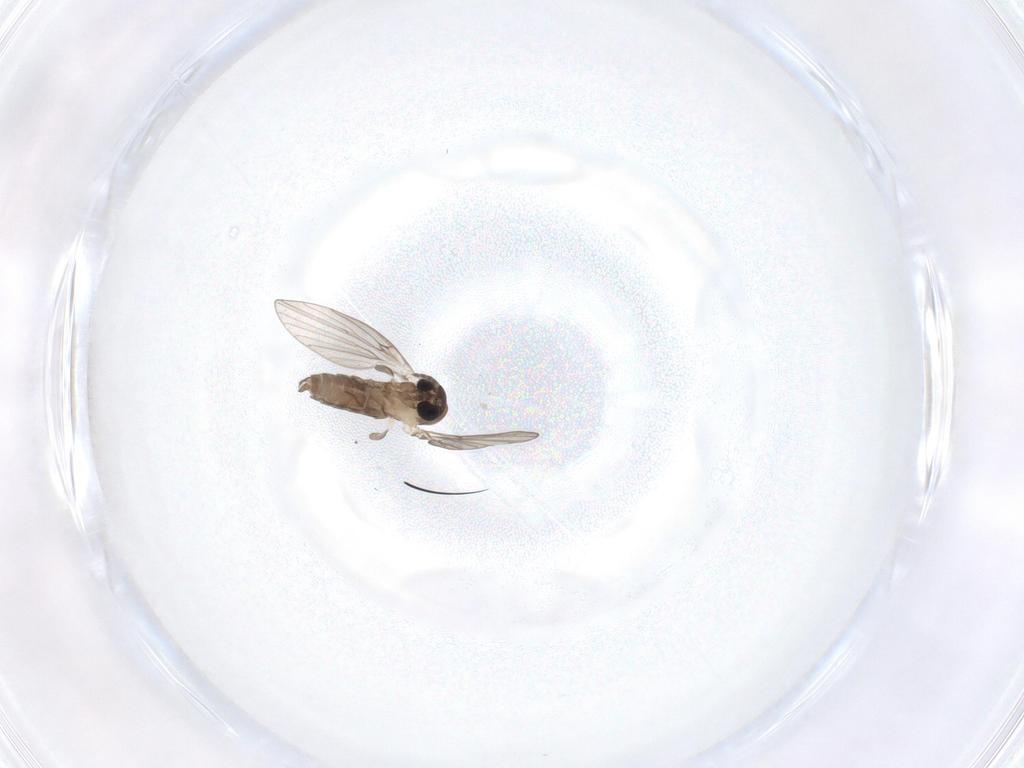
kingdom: Animalia
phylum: Arthropoda
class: Insecta
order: Diptera
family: Psychodidae
